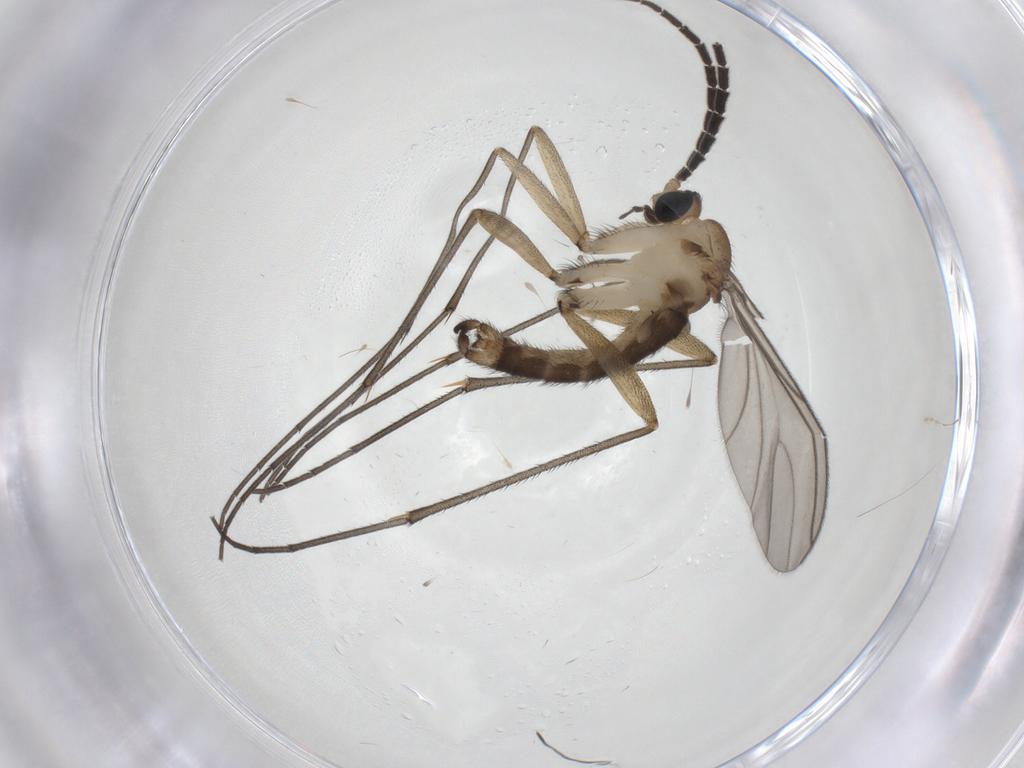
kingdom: Animalia
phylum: Arthropoda
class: Insecta
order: Diptera
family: Sciaridae
